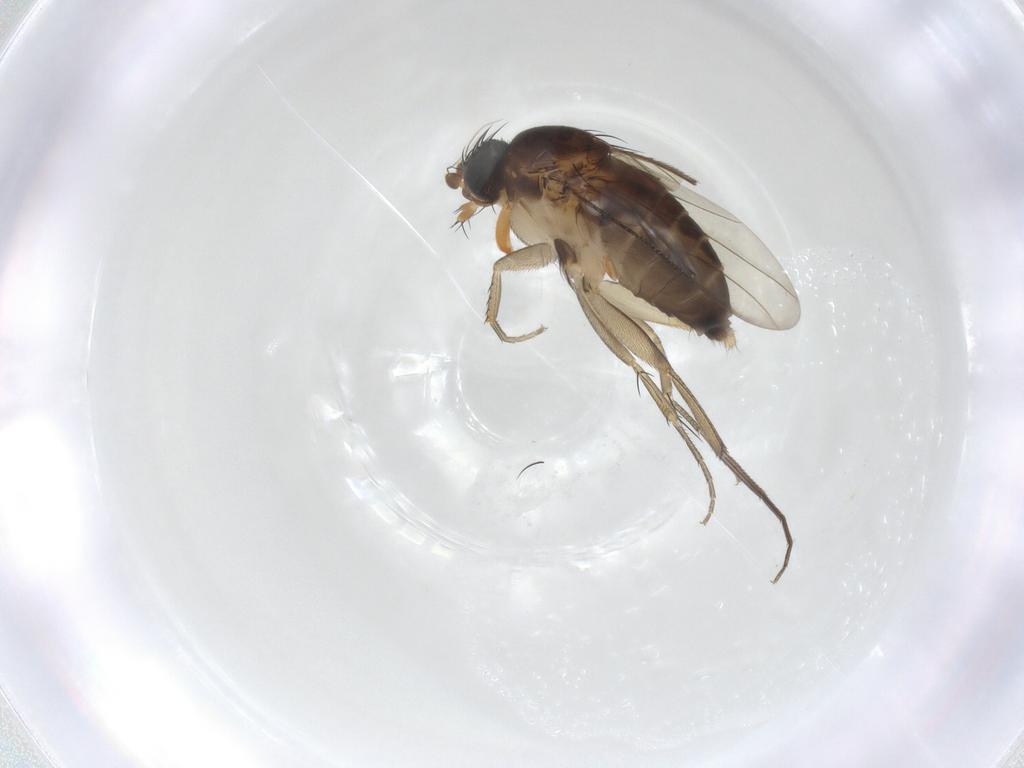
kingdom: Animalia
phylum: Arthropoda
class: Insecta
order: Diptera
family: Phoridae
